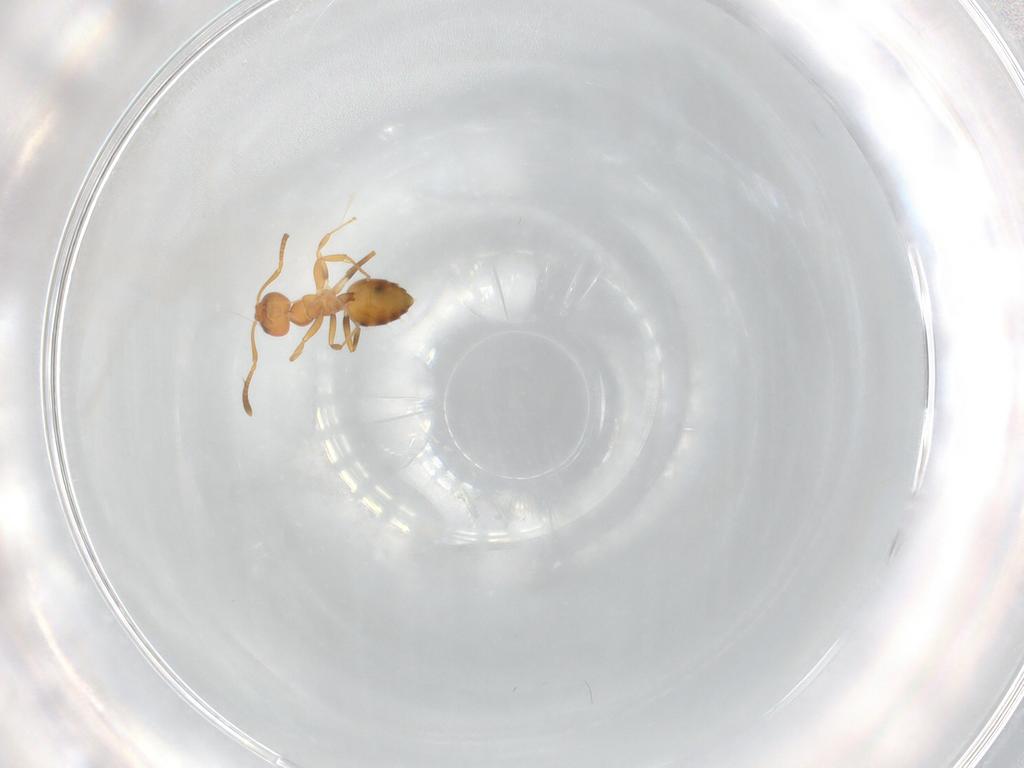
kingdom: Animalia
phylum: Arthropoda
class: Insecta
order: Hymenoptera
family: Formicidae
